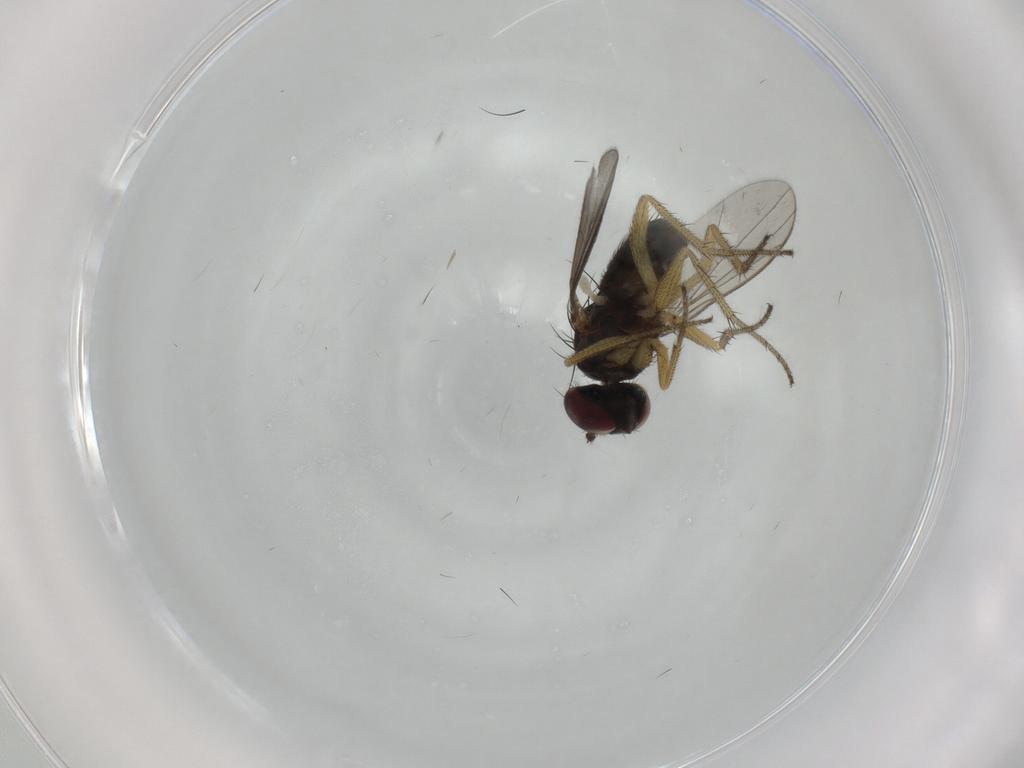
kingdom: Animalia
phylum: Arthropoda
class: Insecta
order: Diptera
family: Dolichopodidae
